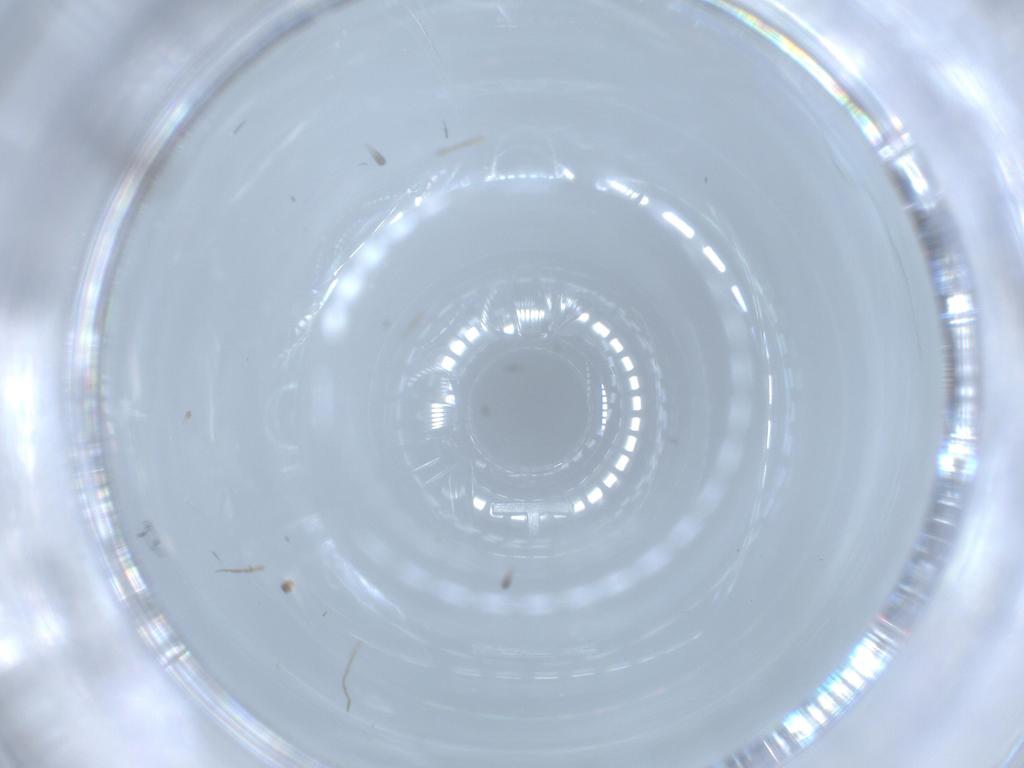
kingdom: Animalia
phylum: Arthropoda
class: Insecta
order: Hymenoptera
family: Trichogrammatidae
